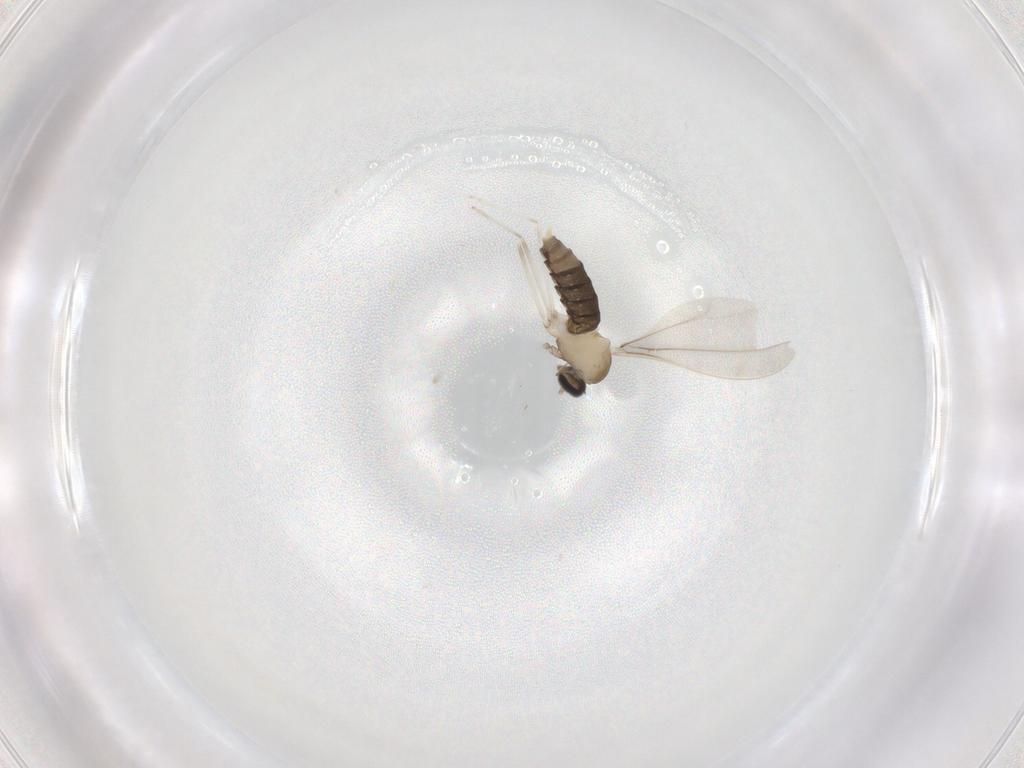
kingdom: Animalia
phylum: Arthropoda
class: Insecta
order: Diptera
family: Cecidomyiidae
